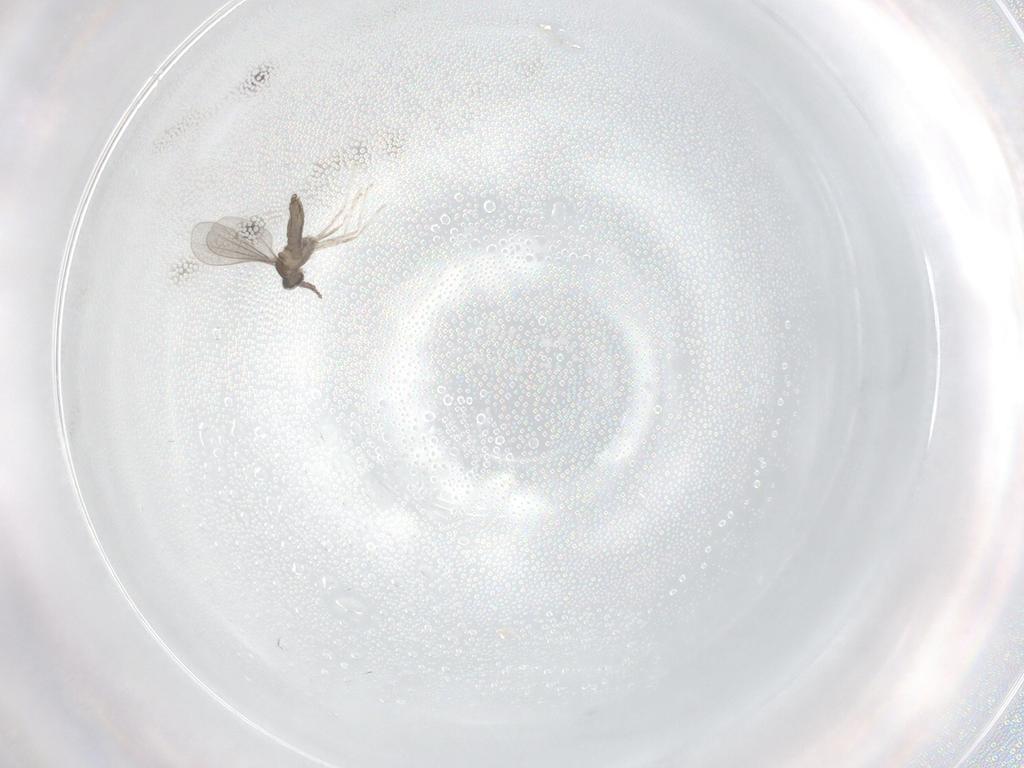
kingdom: Animalia
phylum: Arthropoda
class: Insecta
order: Diptera
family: Cecidomyiidae
